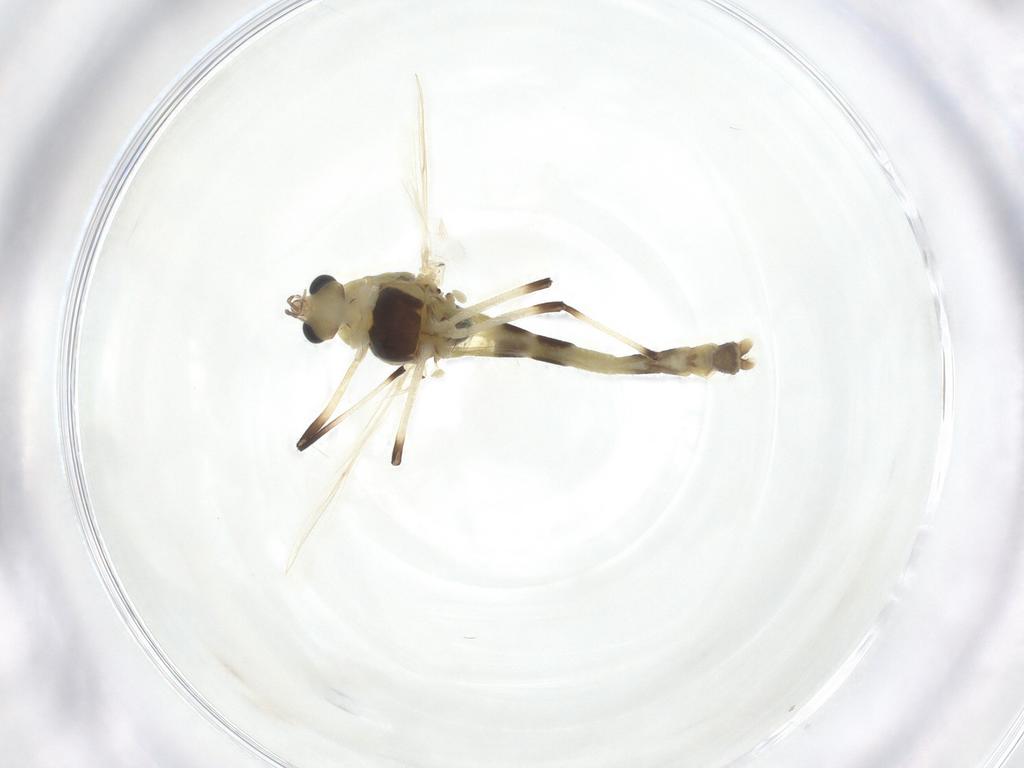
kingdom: Animalia
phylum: Arthropoda
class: Insecta
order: Diptera
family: Chironomidae
